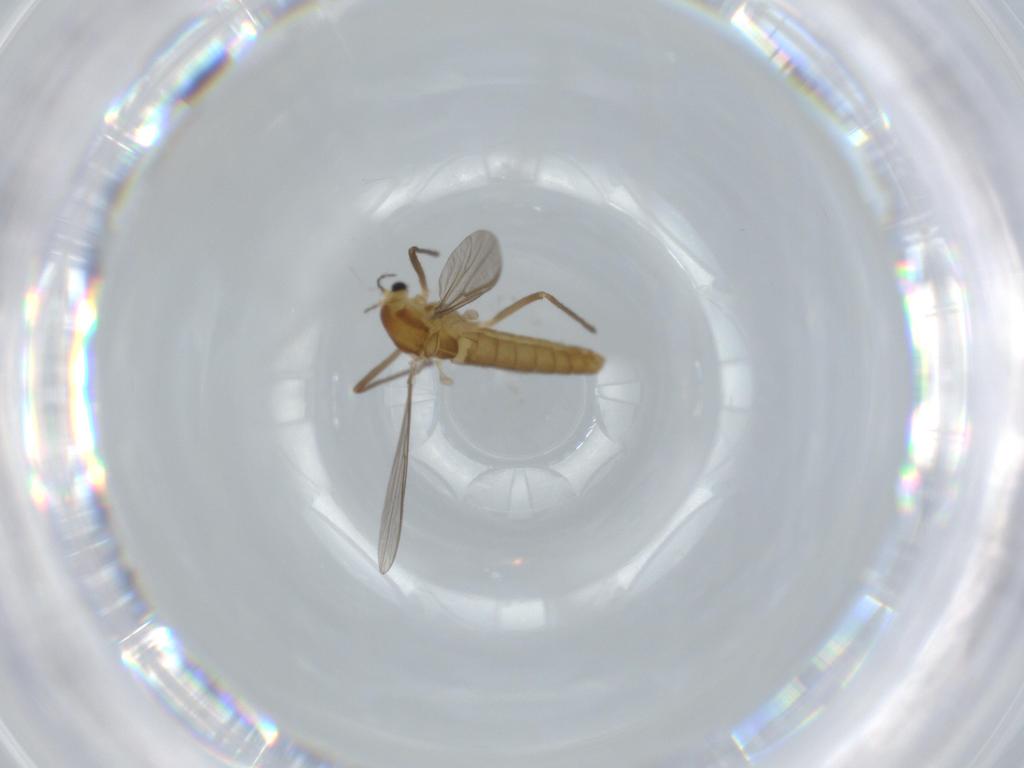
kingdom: Animalia
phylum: Arthropoda
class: Insecta
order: Diptera
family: Chironomidae
